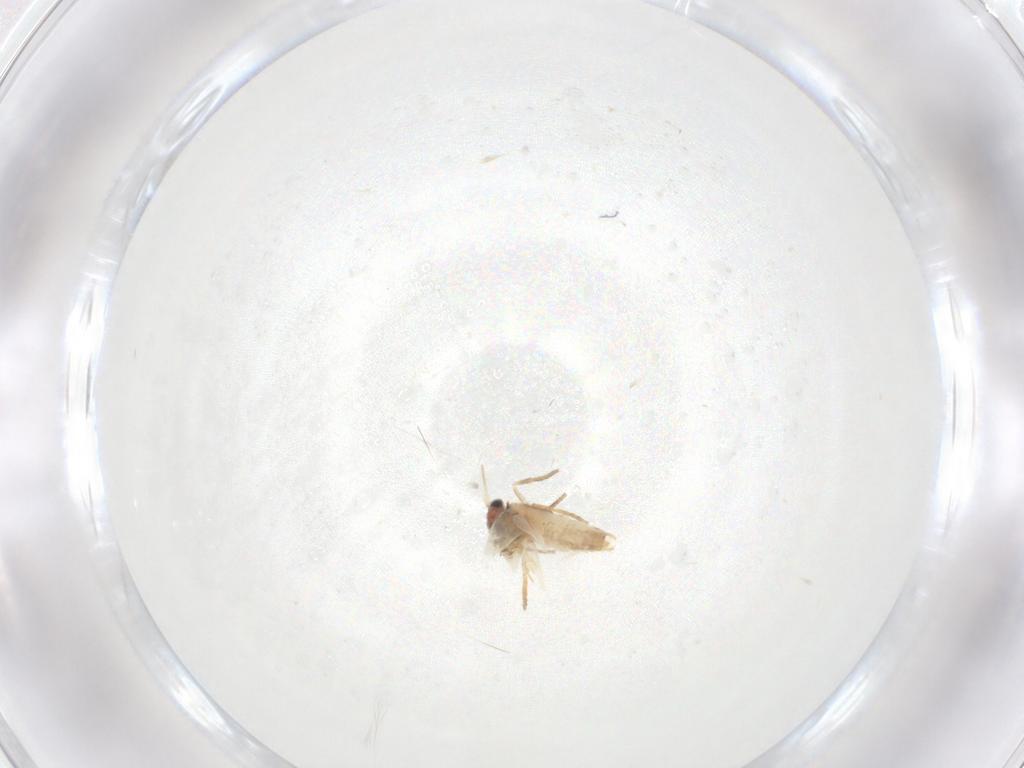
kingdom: Animalia
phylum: Arthropoda
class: Insecta
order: Lepidoptera
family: Nepticulidae
